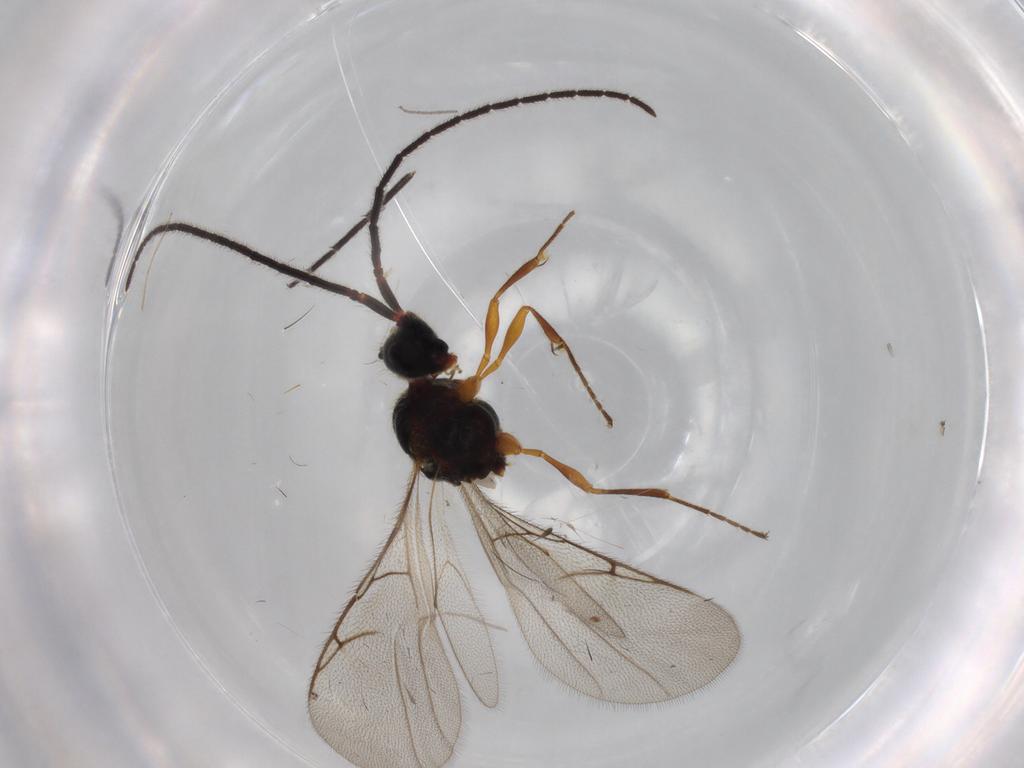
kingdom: Animalia
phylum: Arthropoda
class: Insecta
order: Hymenoptera
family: Diapriidae
